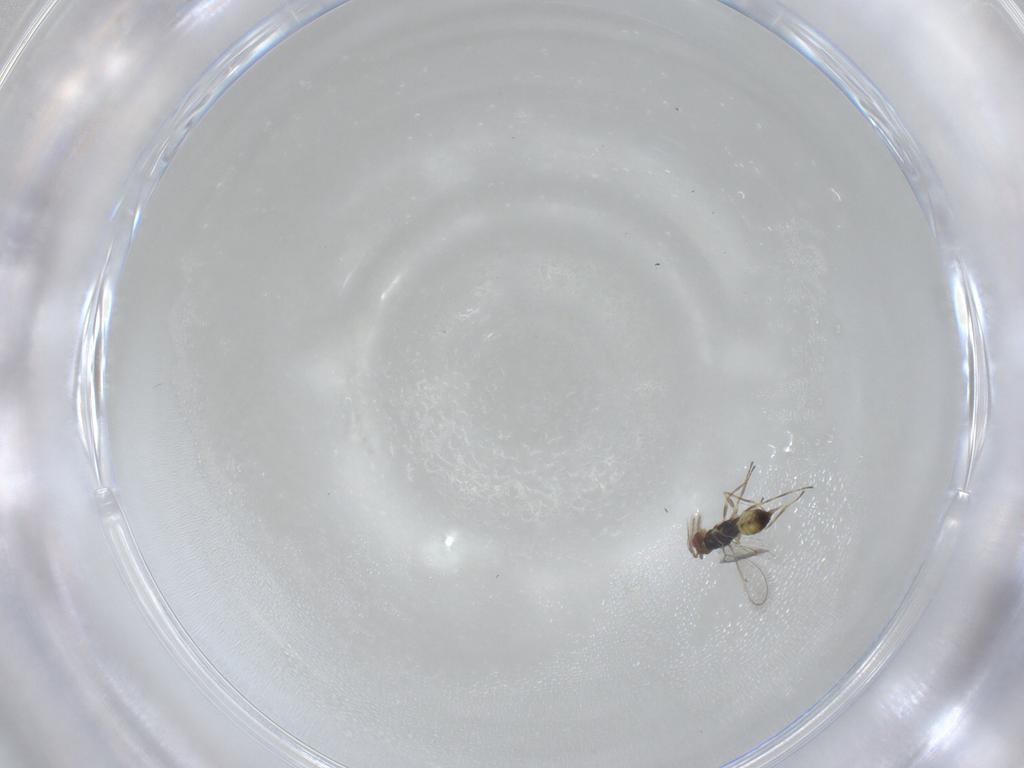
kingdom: Animalia
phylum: Arthropoda
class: Insecta
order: Hymenoptera
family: Eulophidae
